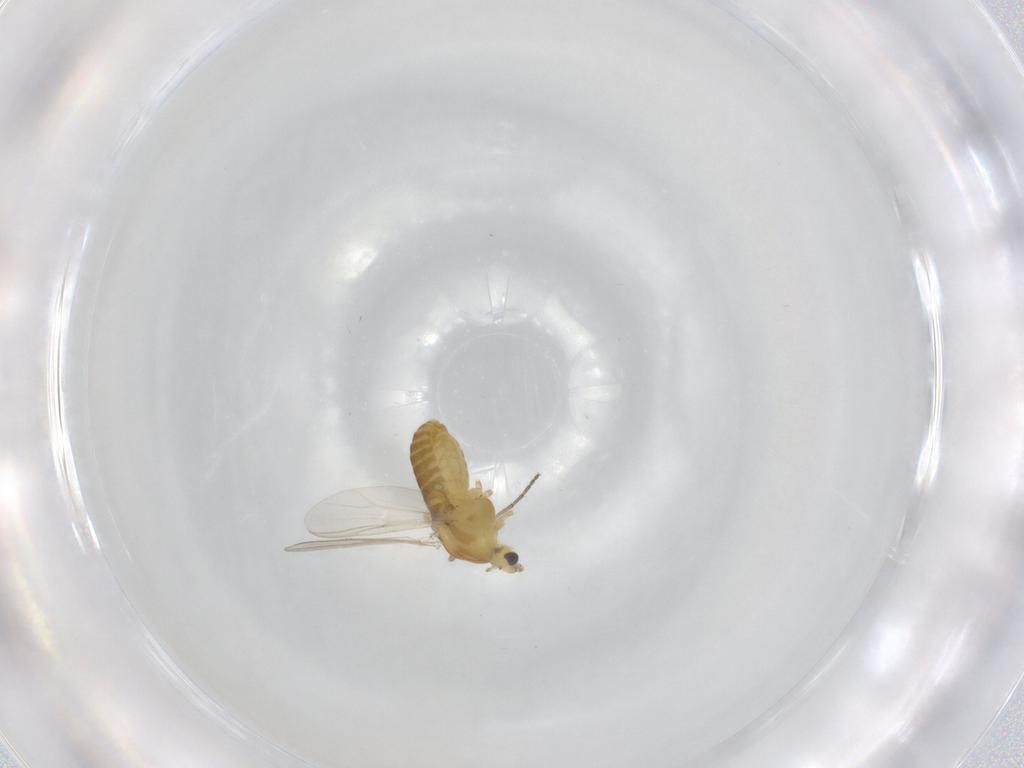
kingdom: Animalia
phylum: Arthropoda
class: Insecta
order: Diptera
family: Chironomidae
